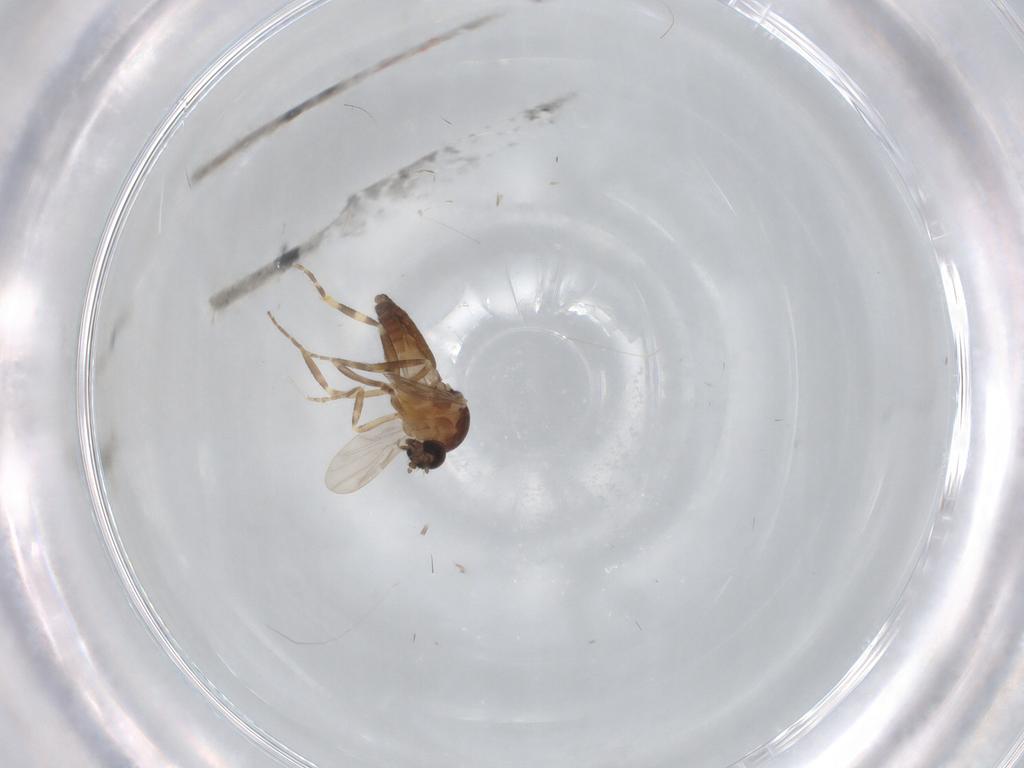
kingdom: Animalia
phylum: Arthropoda
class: Insecta
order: Diptera
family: Ceratopogonidae
